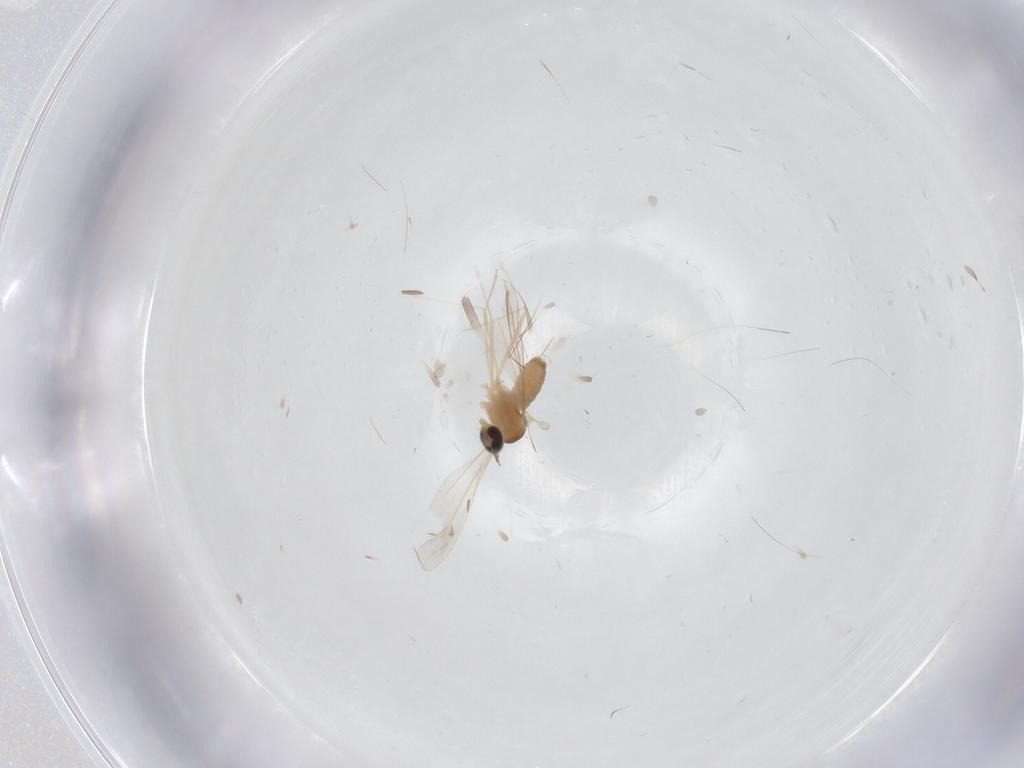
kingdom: Animalia
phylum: Arthropoda
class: Insecta
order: Diptera
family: Cecidomyiidae
